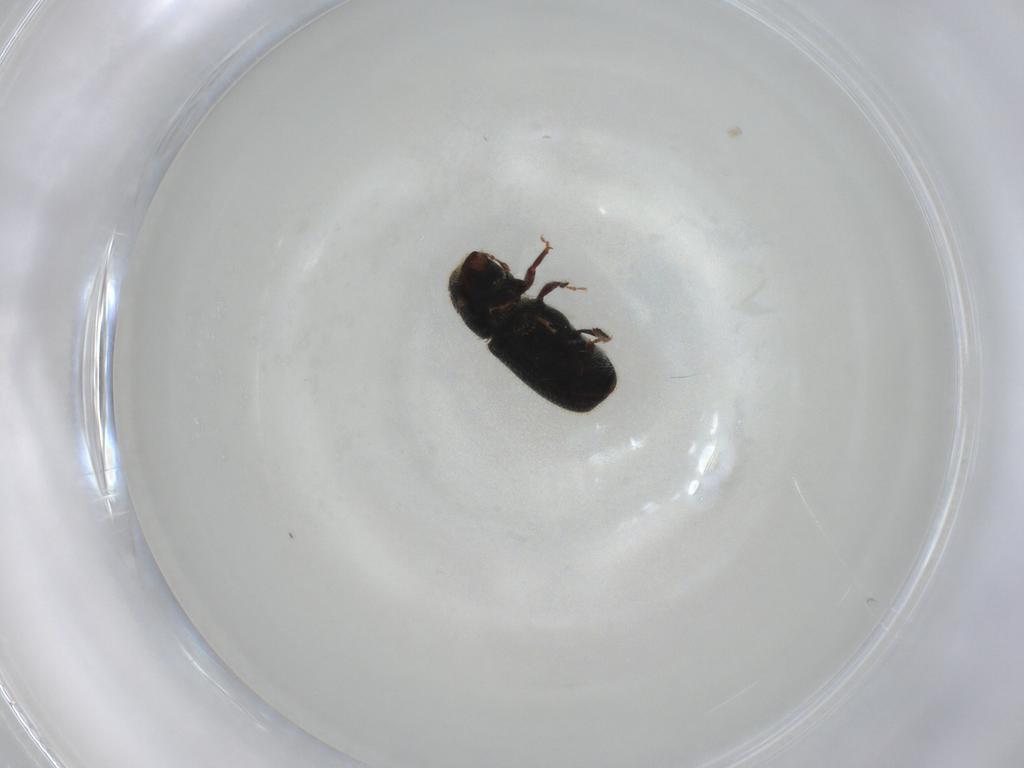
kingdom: Animalia
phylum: Arthropoda
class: Insecta
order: Coleoptera
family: Curculionidae
